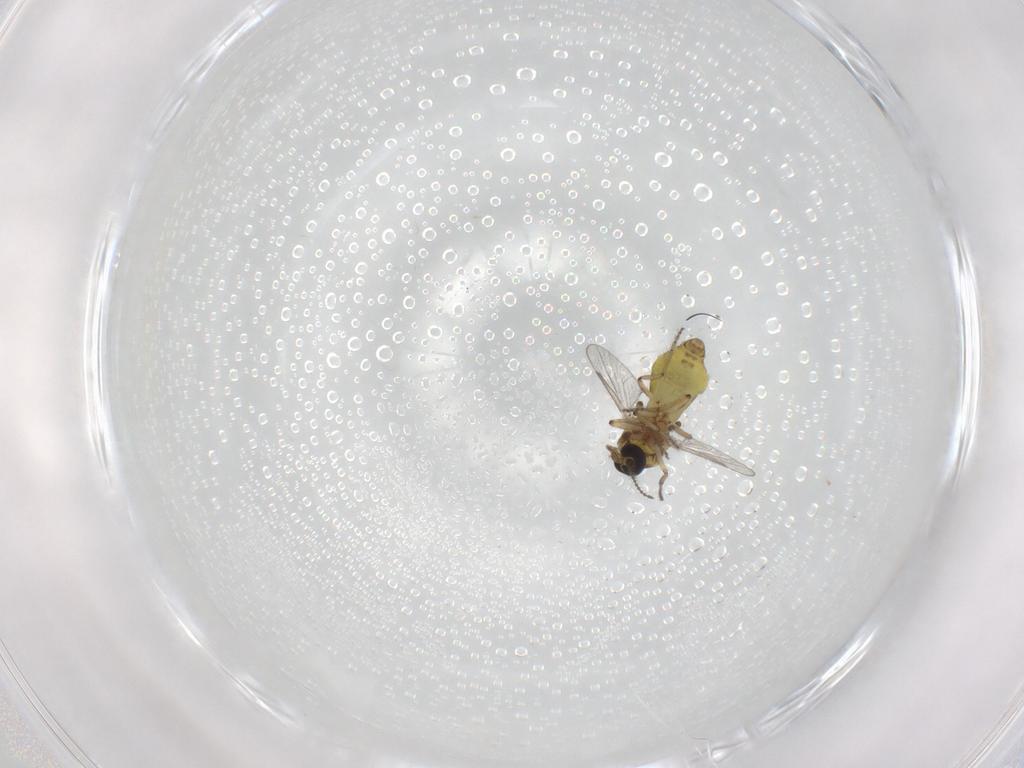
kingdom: Animalia
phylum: Arthropoda
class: Insecta
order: Diptera
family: Ceratopogonidae
